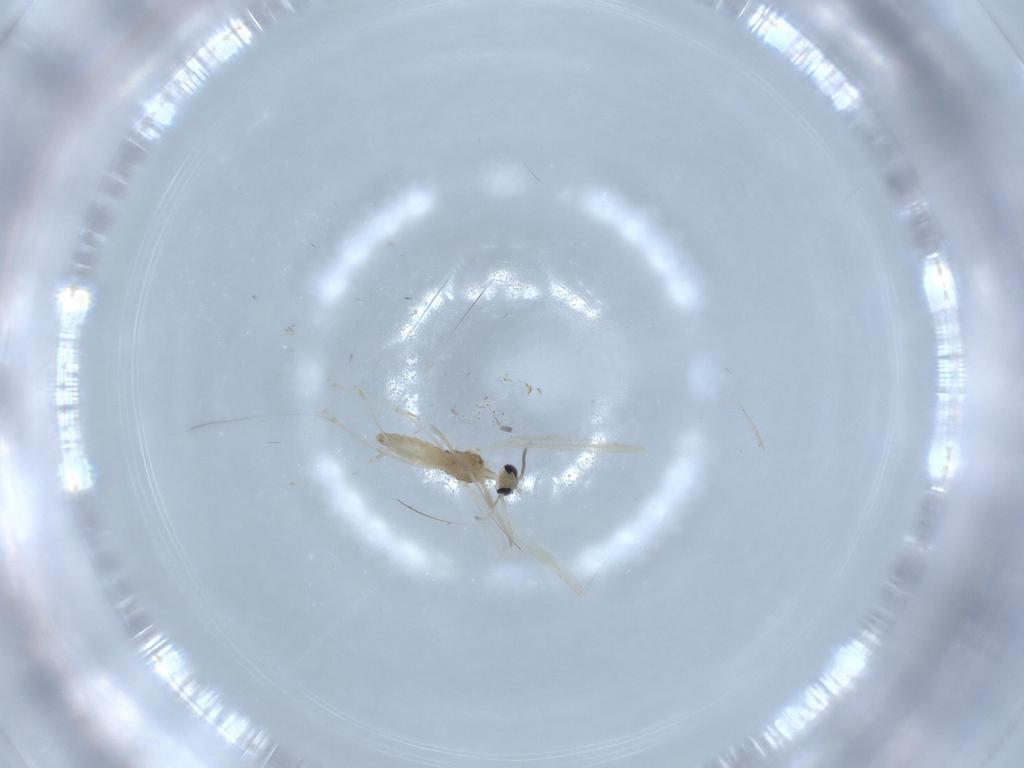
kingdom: Animalia
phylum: Arthropoda
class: Insecta
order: Diptera
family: Cecidomyiidae
